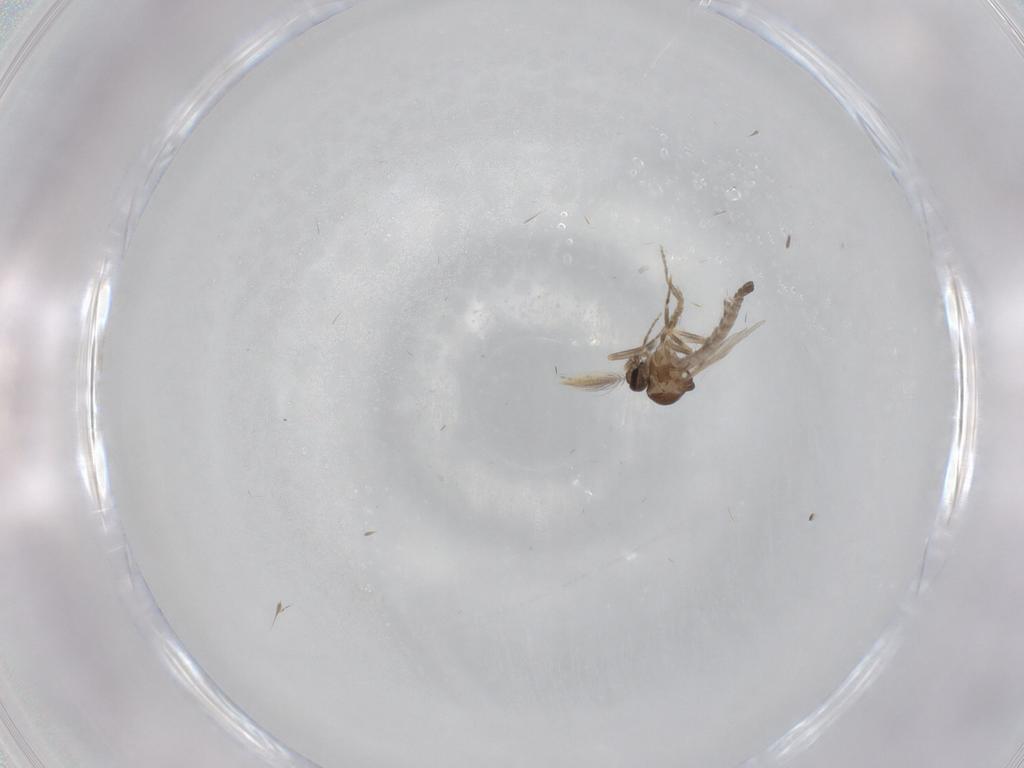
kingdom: Animalia
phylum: Arthropoda
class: Insecta
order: Diptera
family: Ceratopogonidae
